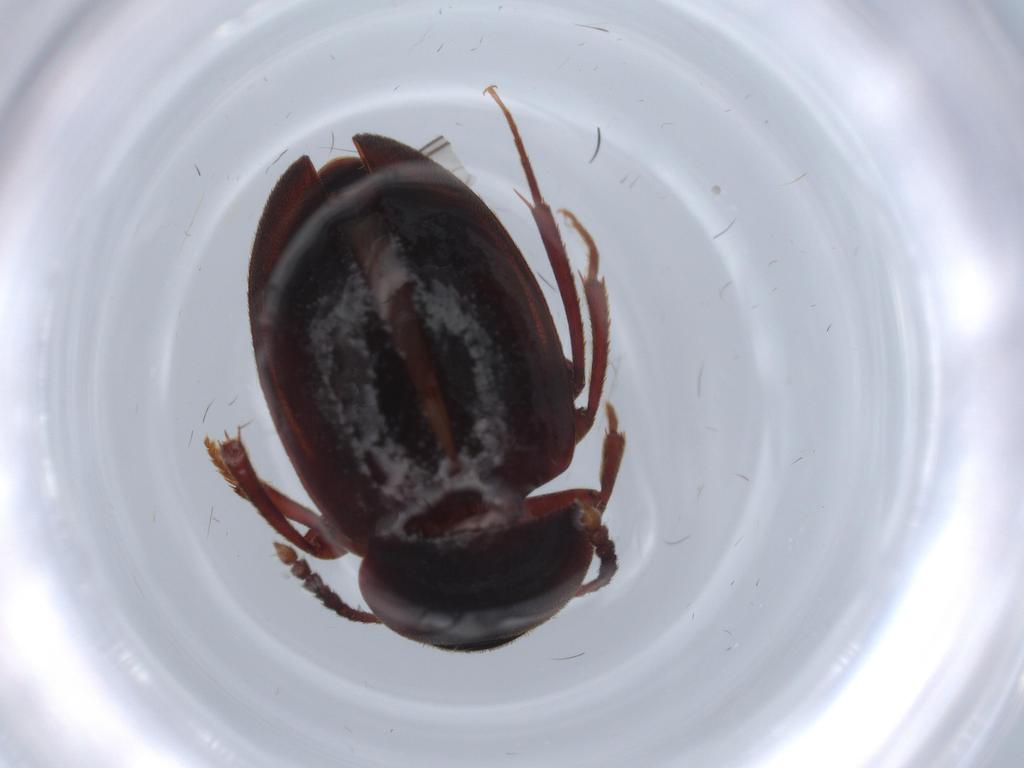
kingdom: Animalia
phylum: Arthropoda
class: Insecta
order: Coleoptera
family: Leiodidae
